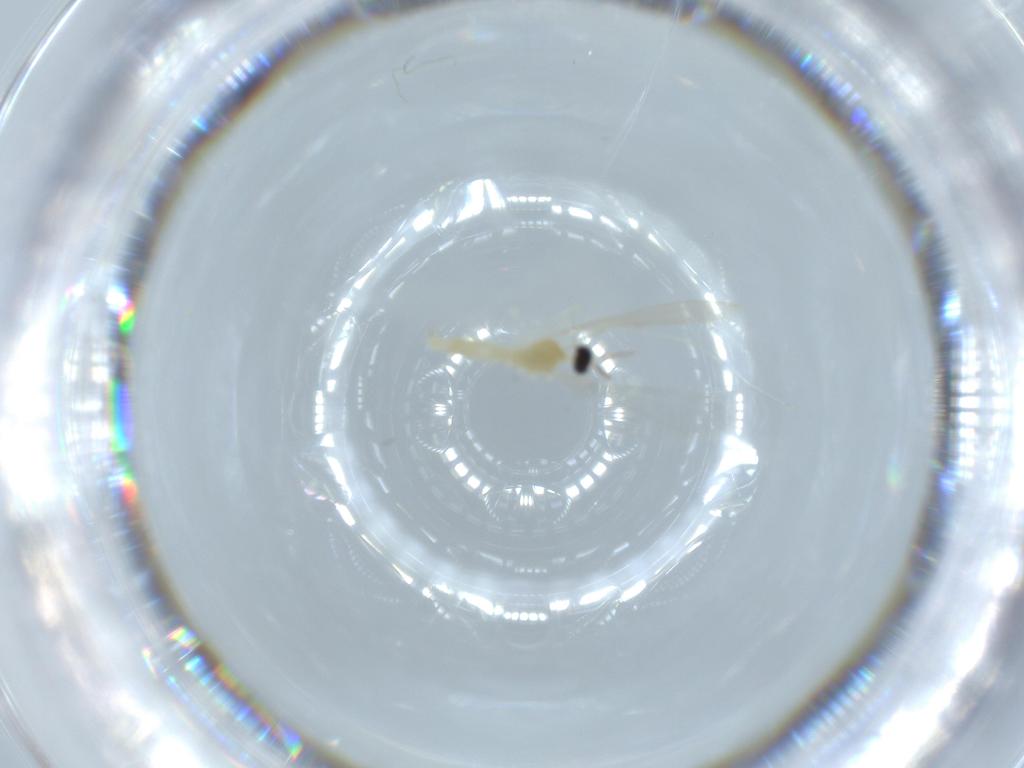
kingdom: Animalia
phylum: Arthropoda
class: Insecta
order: Diptera
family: Cecidomyiidae
